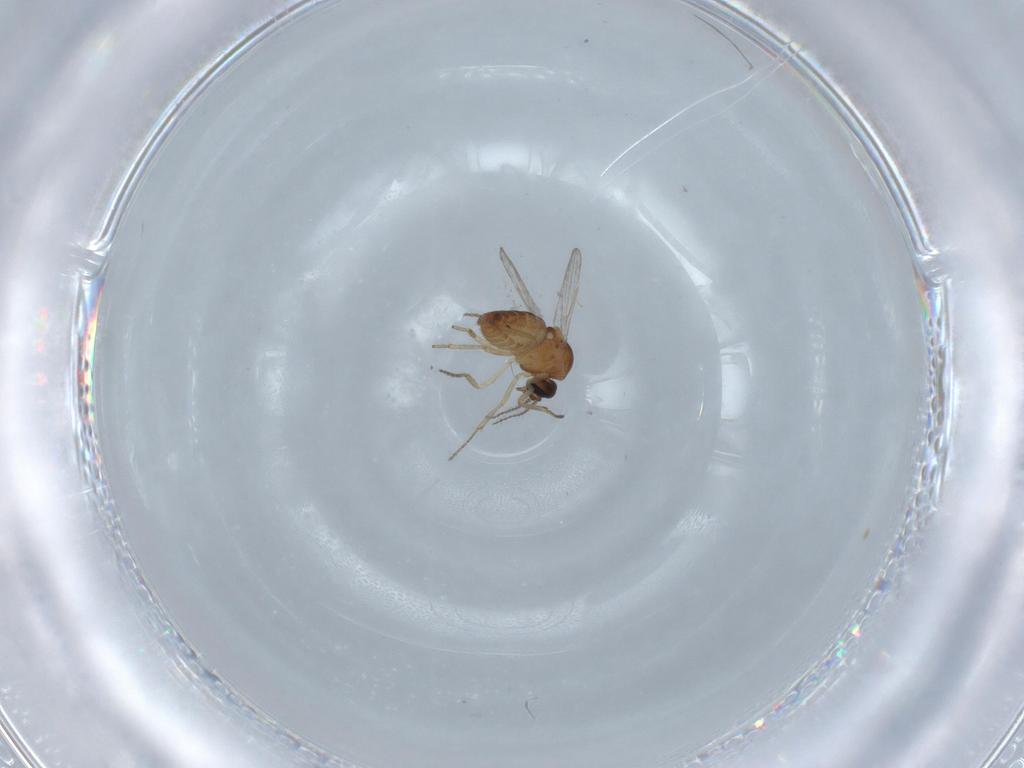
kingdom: Animalia
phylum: Arthropoda
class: Insecta
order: Diptera
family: Ceratopogonidae
